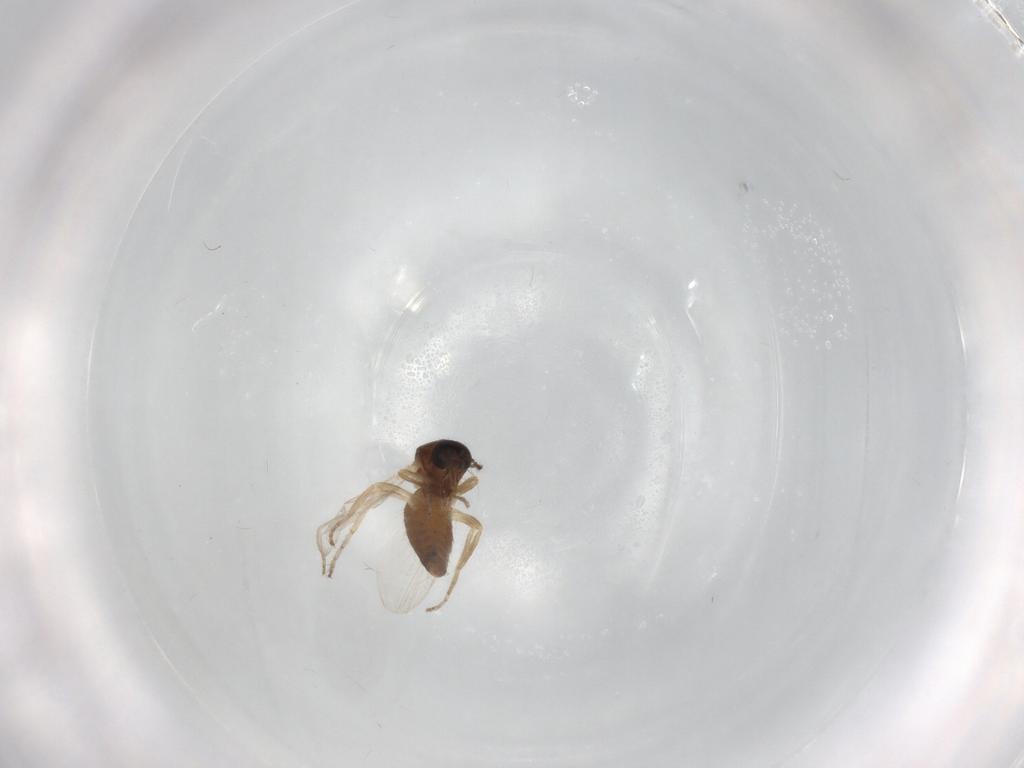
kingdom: Animalia
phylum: Arthropoda
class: Insecta
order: Diptera
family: Ceratopogonidae
